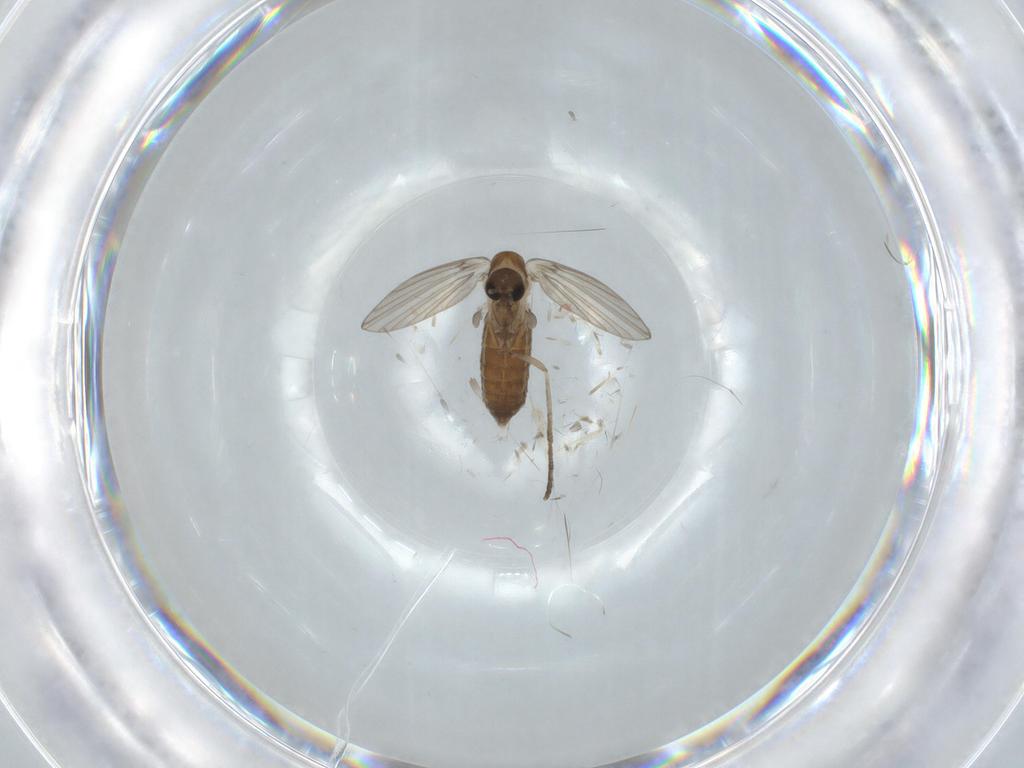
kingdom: Animalia
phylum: Arthropoda
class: Insecta
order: Diptera
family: Psychodidae
